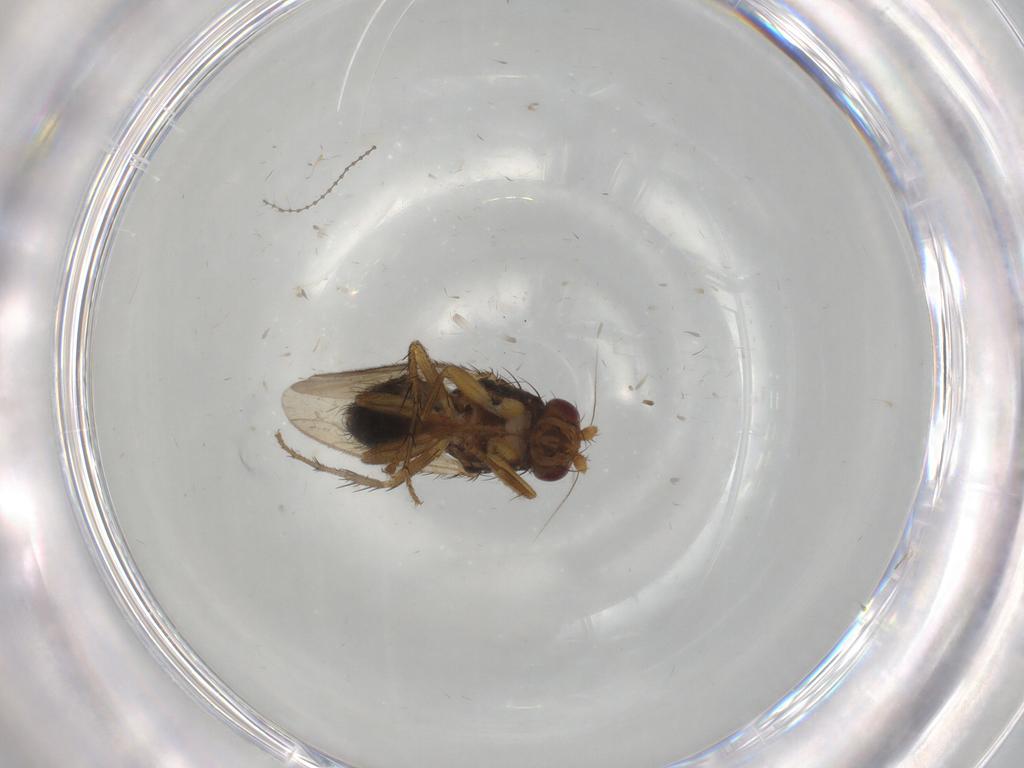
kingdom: Animalia
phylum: Arthropoda
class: Insecta
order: Diptera
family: Sphaeroceridae
